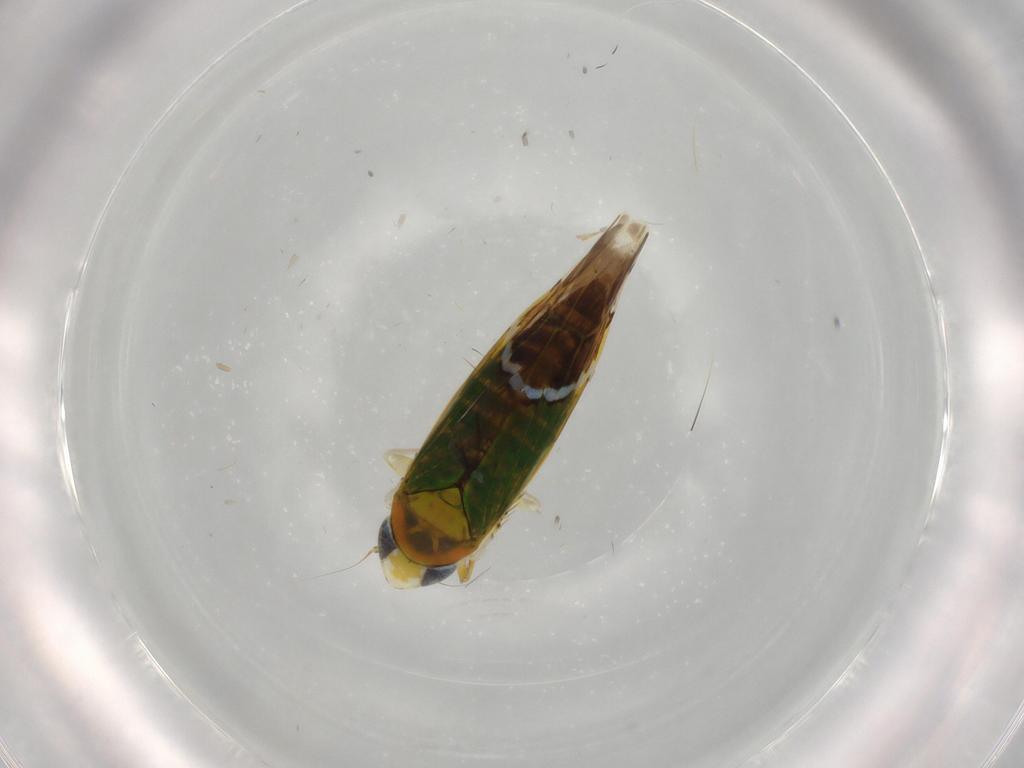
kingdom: Animalia
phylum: Arthropoda
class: Insecta
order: Hemiptera
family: Cicadellidae
